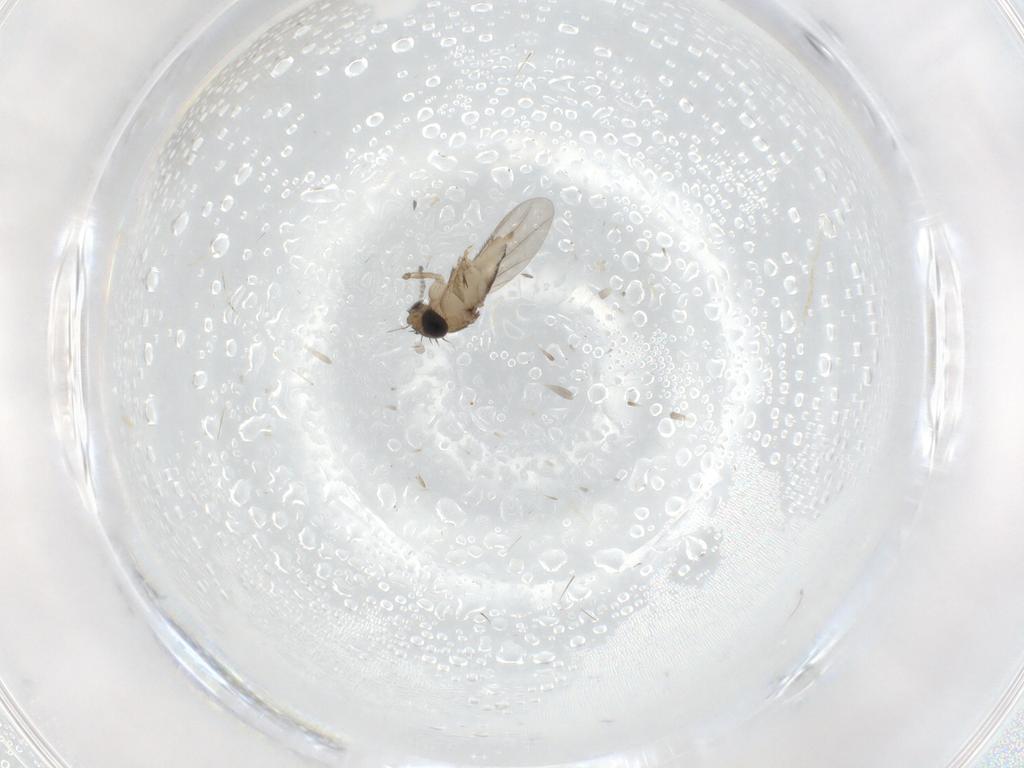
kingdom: Animalia
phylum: Arthropoda
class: Insecta
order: Diptera
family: Phoridae
